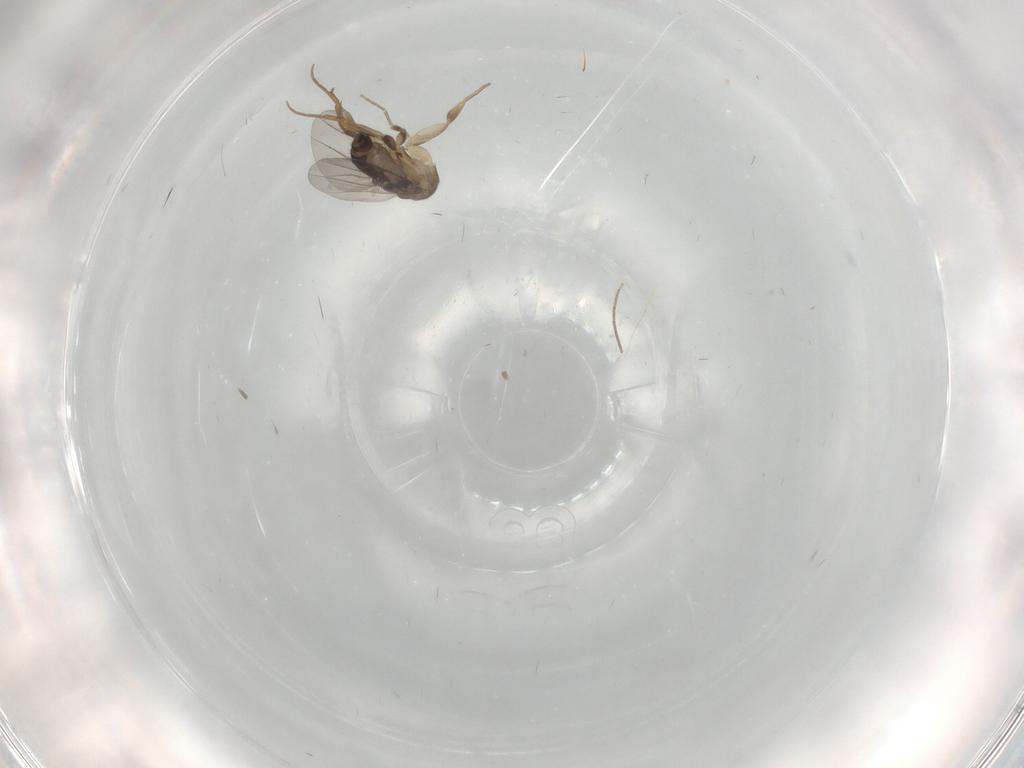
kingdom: Animalia
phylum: Arthropoda
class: Insecta
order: Diptera
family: Chironomidae
